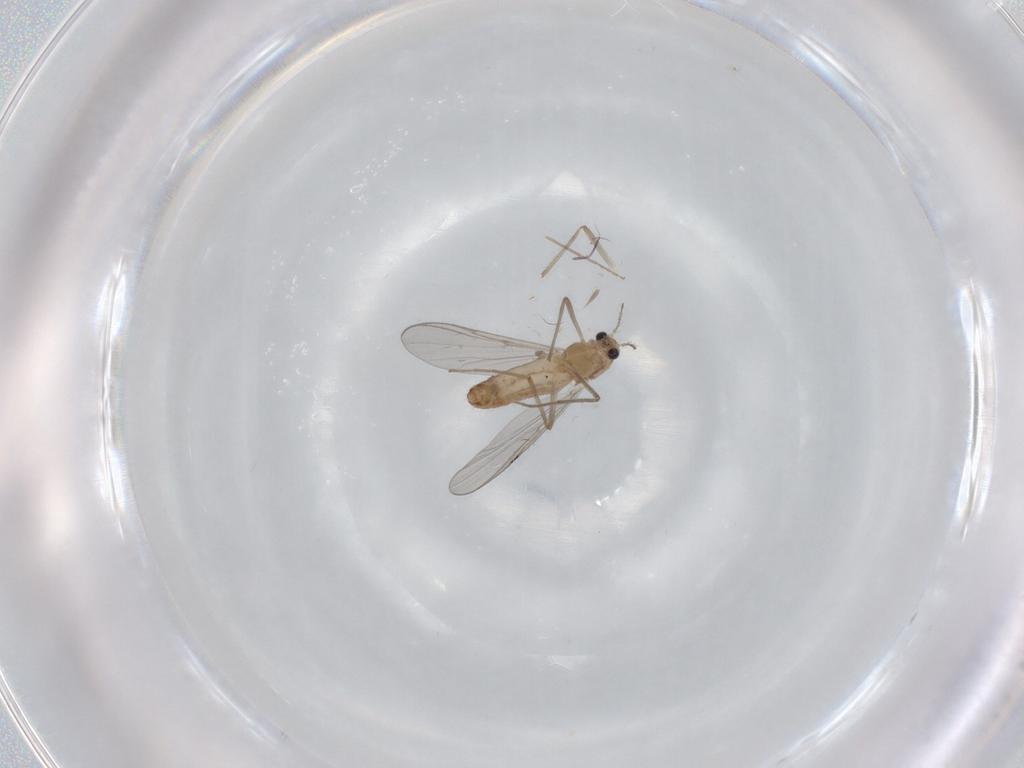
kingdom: Animalia
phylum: Arthropoda
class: Insecta
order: Diptera
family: Chironomidae
